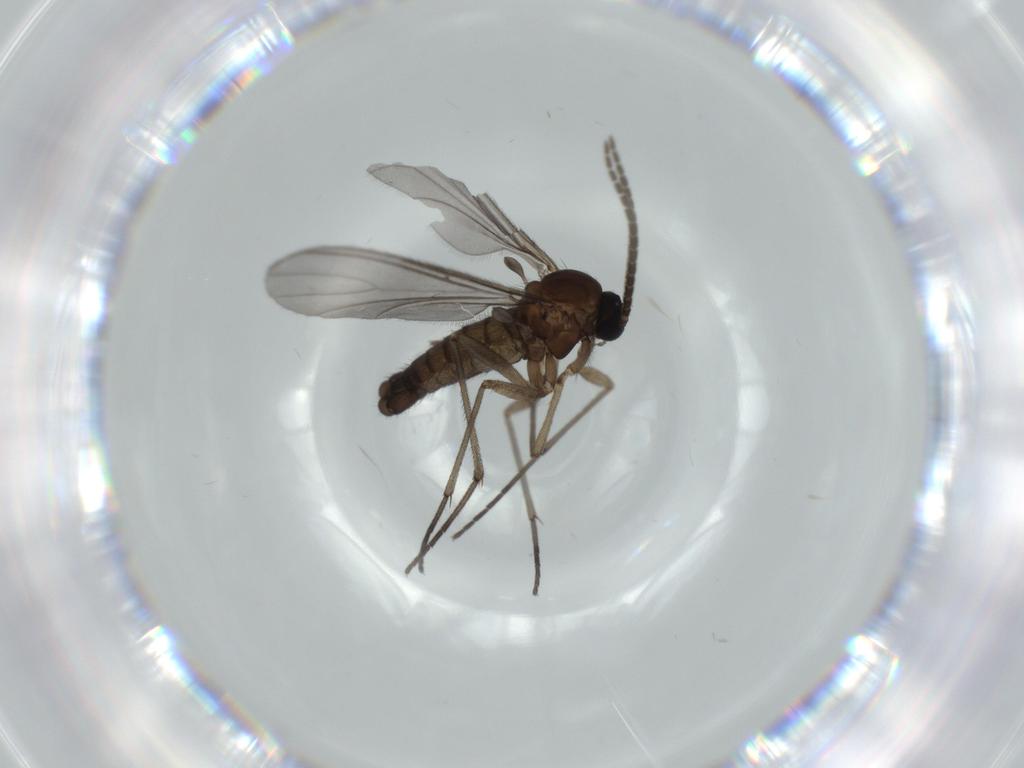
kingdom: Animalia
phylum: Arthropoda
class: Insecta
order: Diptera
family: Sciaridae
